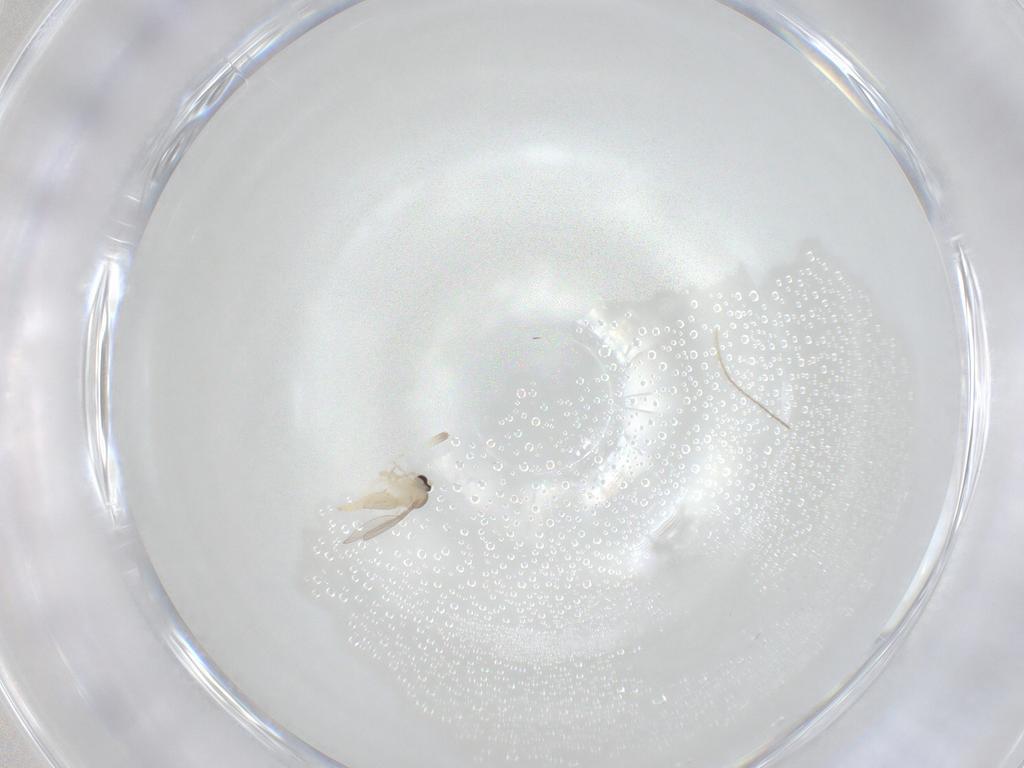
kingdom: Animalia
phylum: Arthropoda
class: Insecta
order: Diptera
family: Cecidomyiidae
